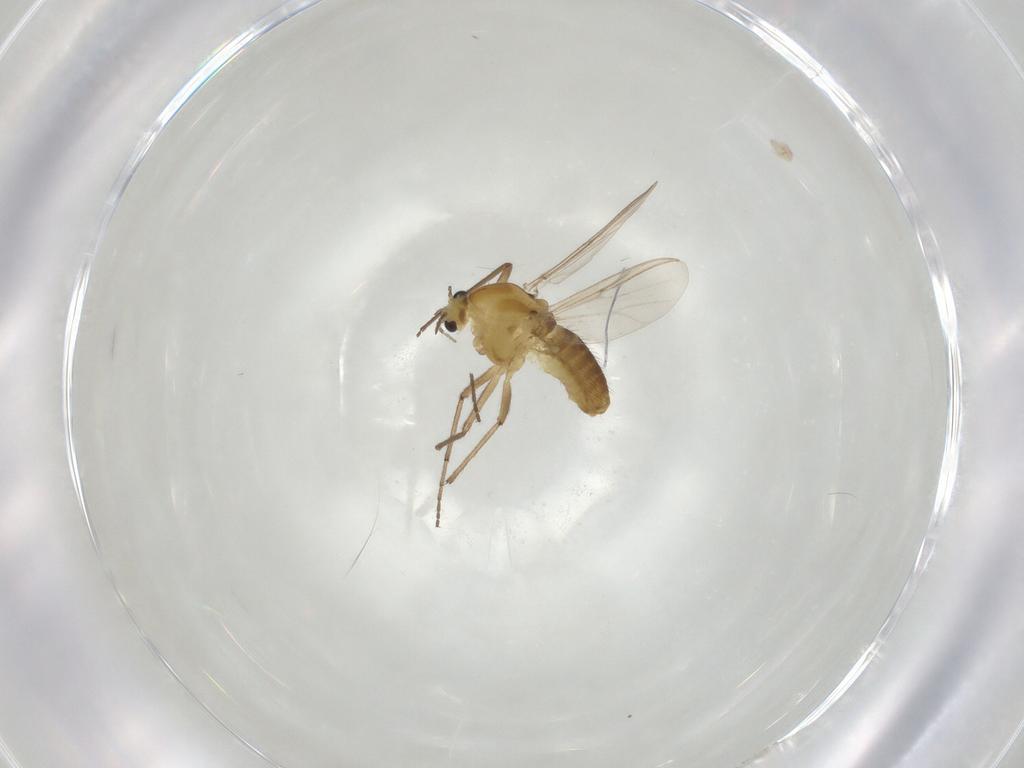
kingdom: Animalia
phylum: Arthropoda
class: Insecta
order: Diptera
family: Chironomidae
